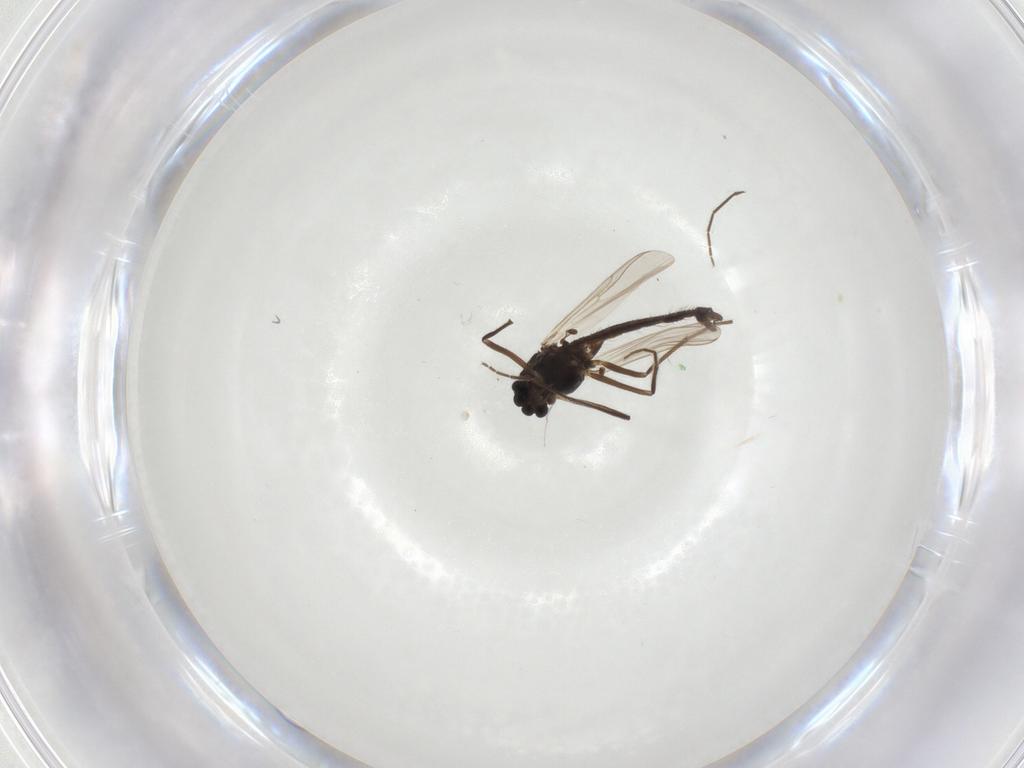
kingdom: Animalia
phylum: Arthropoda
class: Insecta
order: Diptera
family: Chironomidae
